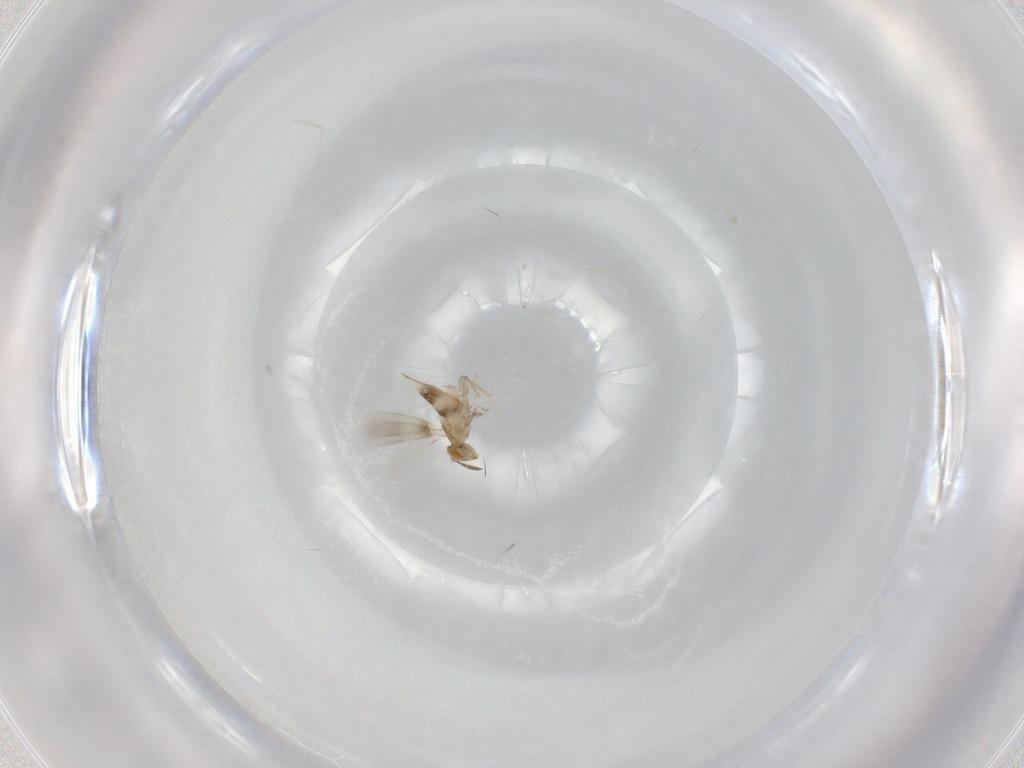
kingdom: Animalia
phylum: Arthropoda
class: Insecta
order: Hymenoptera
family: Aphelinidae
